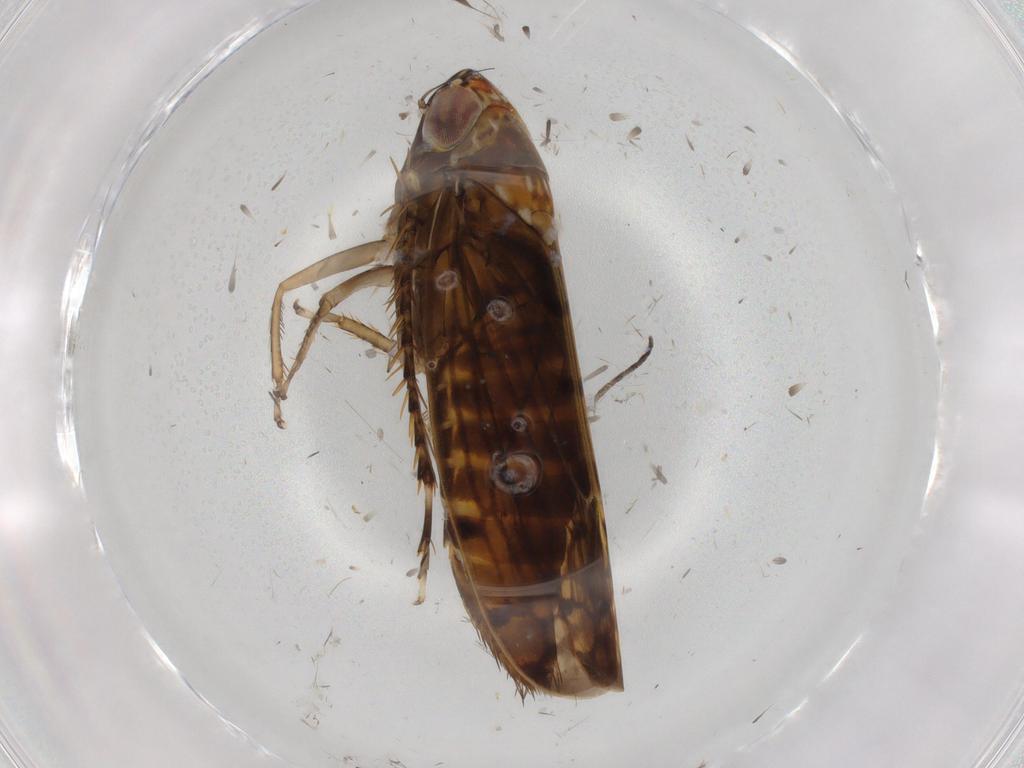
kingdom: Animalia
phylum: Arthropoda
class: Insecta
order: Hemiptera
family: Cicadellidae
